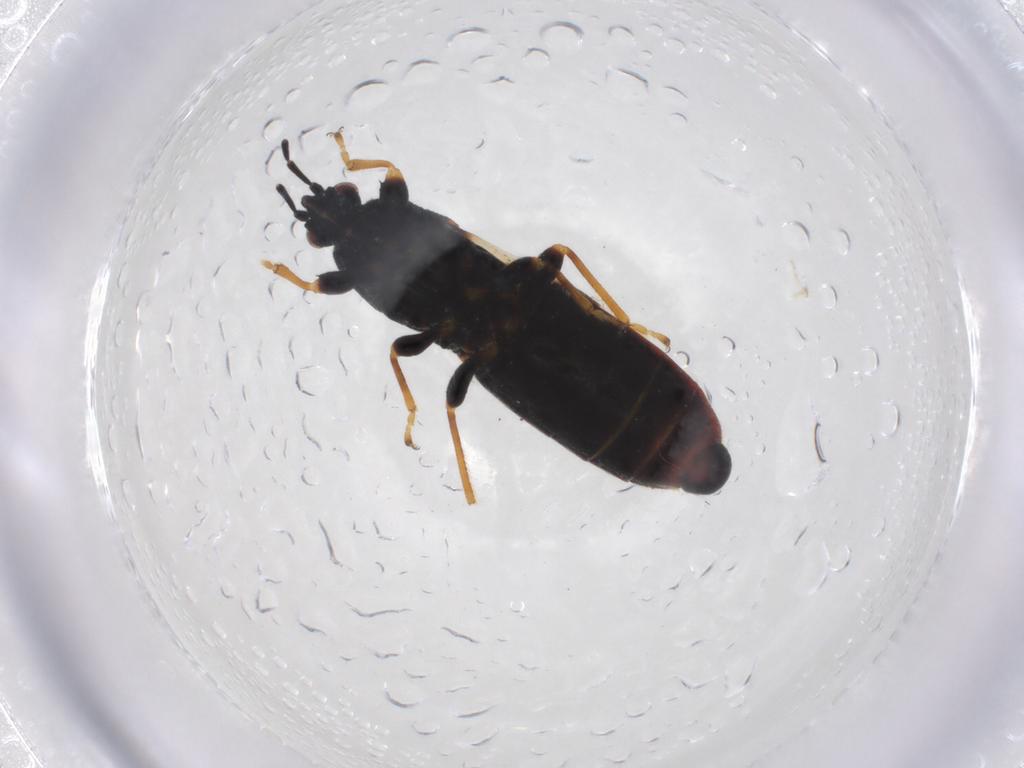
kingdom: Animalia
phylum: Arthropoda
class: Insecta
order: Hemiptera
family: Blissidae
